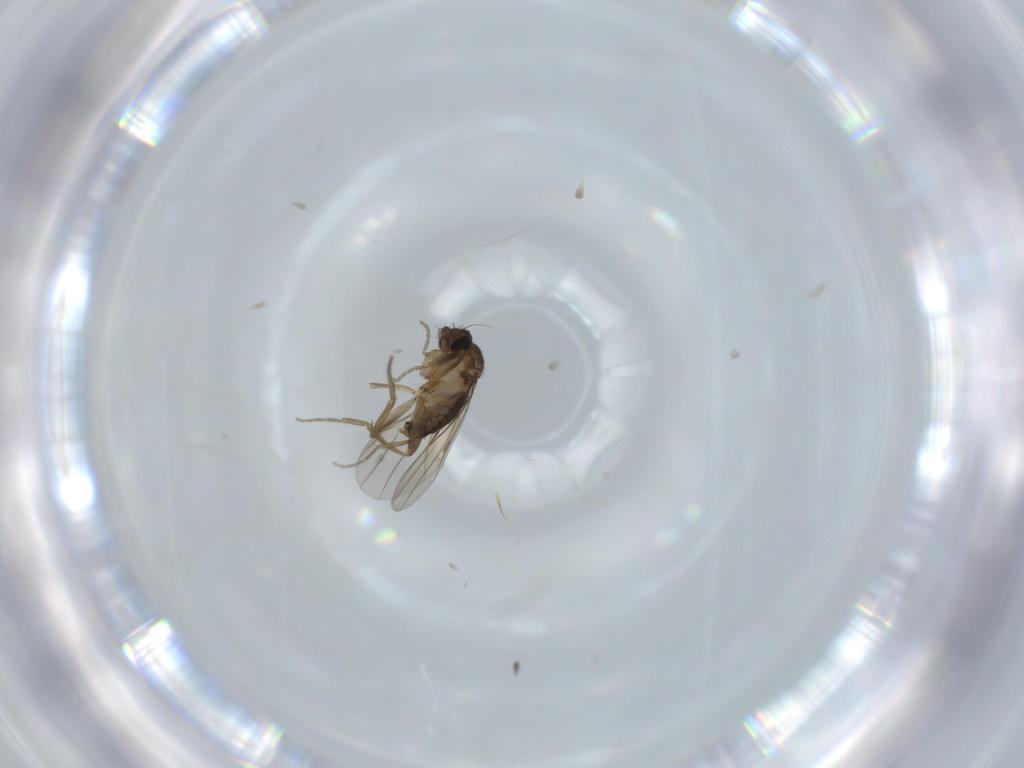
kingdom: Animalia
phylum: Arthropoda
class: Insecta
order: Diptera
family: Phoridae
